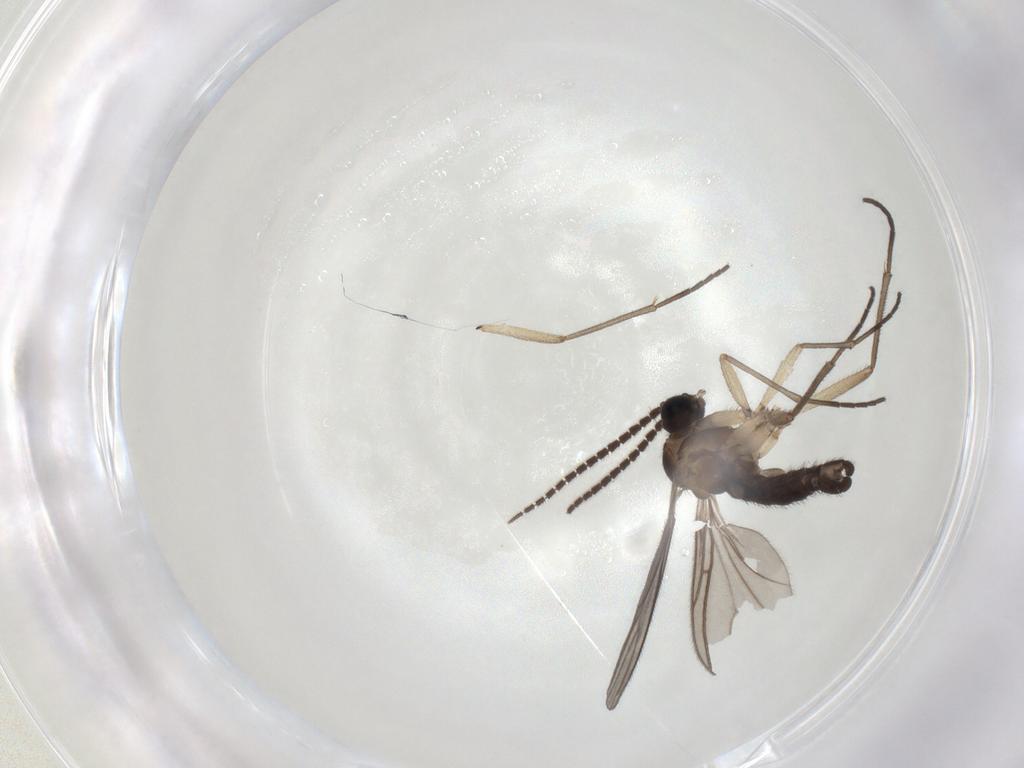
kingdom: Animalia
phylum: Arthropoda
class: Insecta
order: Diptera
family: Sciaridae
